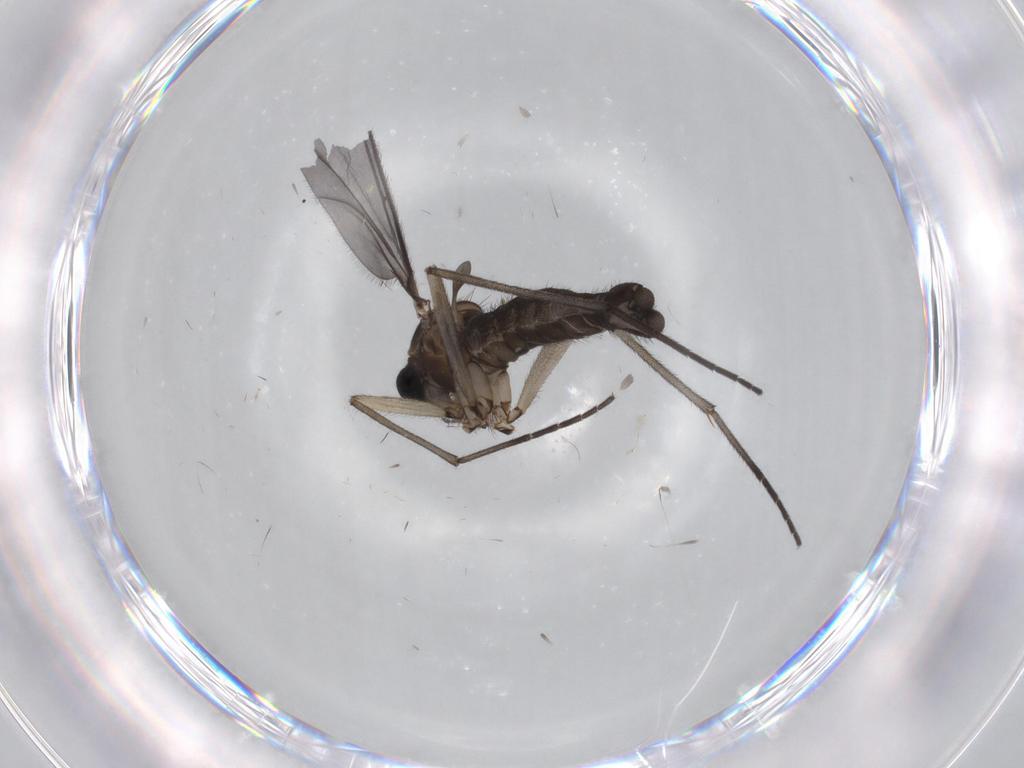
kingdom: Animalia
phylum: Arthropoda
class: Insecta
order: Diptera
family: Sciaridae
